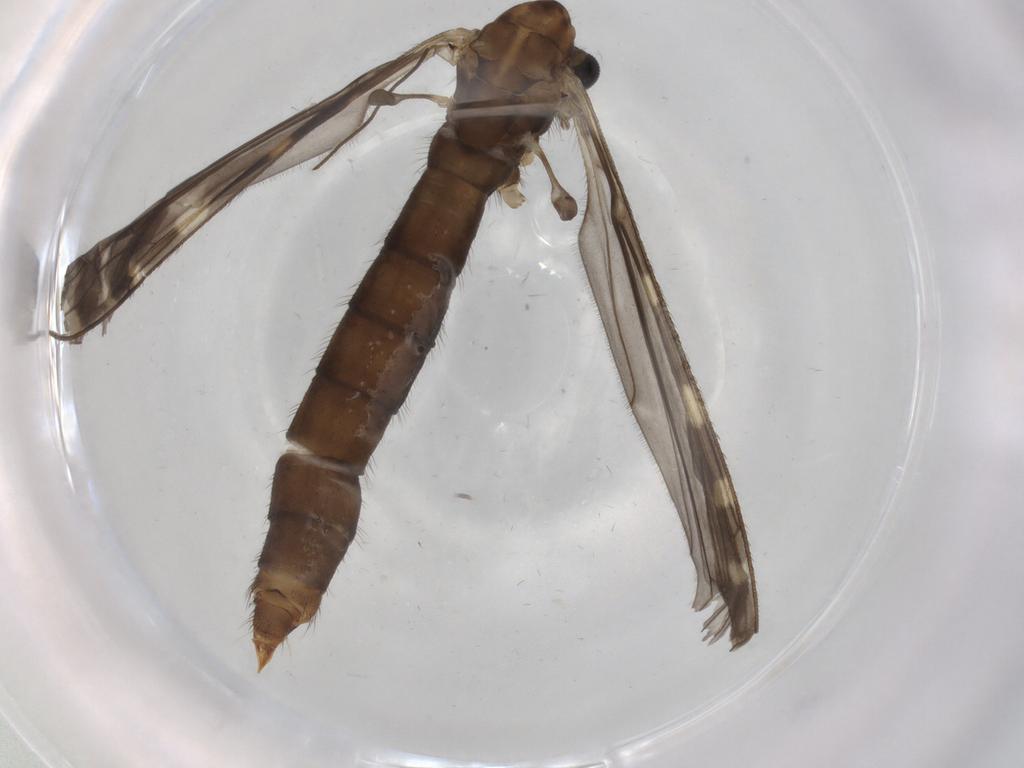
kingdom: Animalia
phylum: Arthropoda
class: Insecta
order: Diptera
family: Limoniidae
